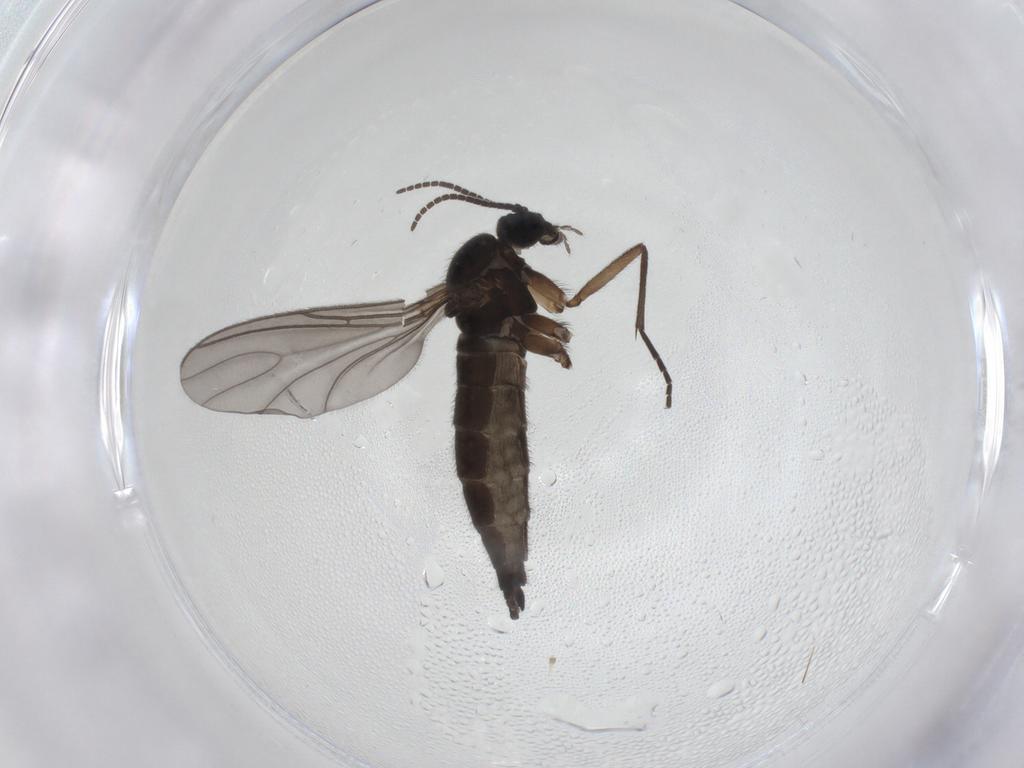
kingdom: Animalia
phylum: Arthropoda
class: Insecta
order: Diptera
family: Sciaridae
